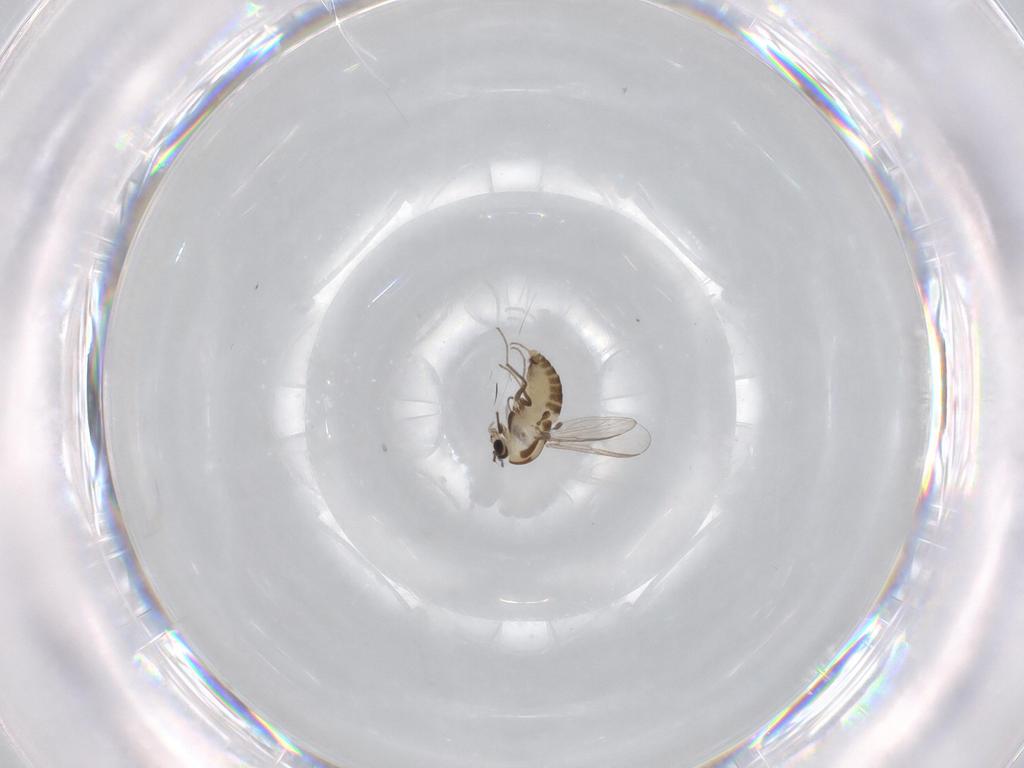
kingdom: Animalia
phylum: Arthropoda
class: Insecta
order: Diptera
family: Chironomidae
